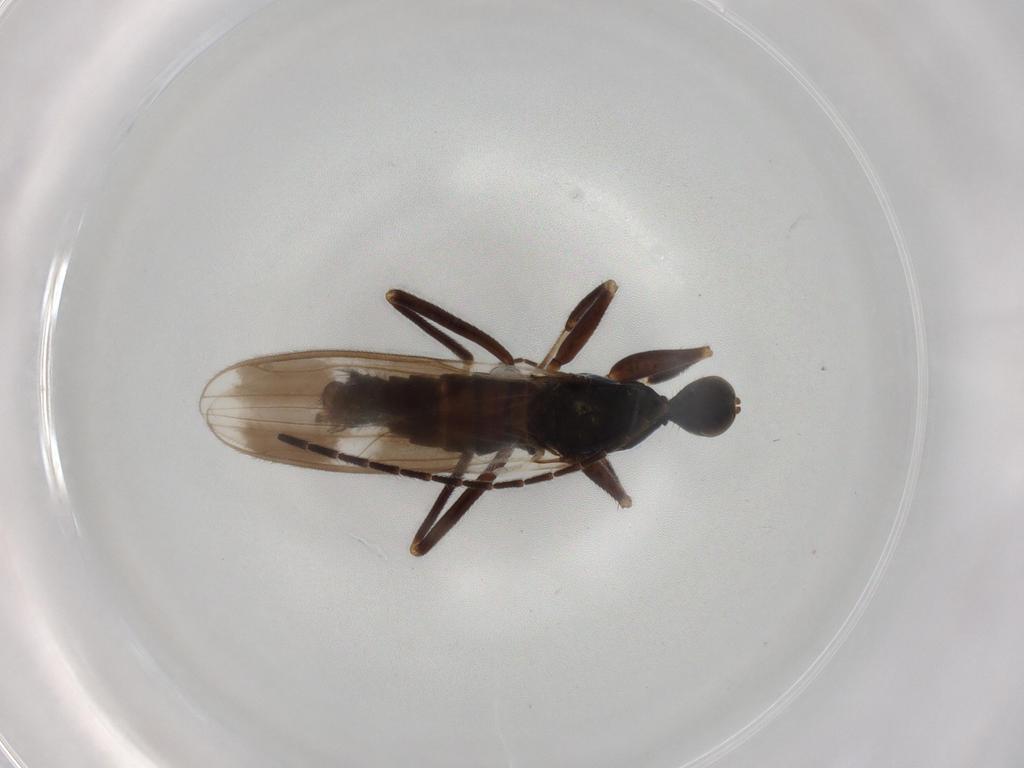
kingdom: Animalia
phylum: Arthropoda
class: Insecta
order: Diptera
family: Hybotidae
